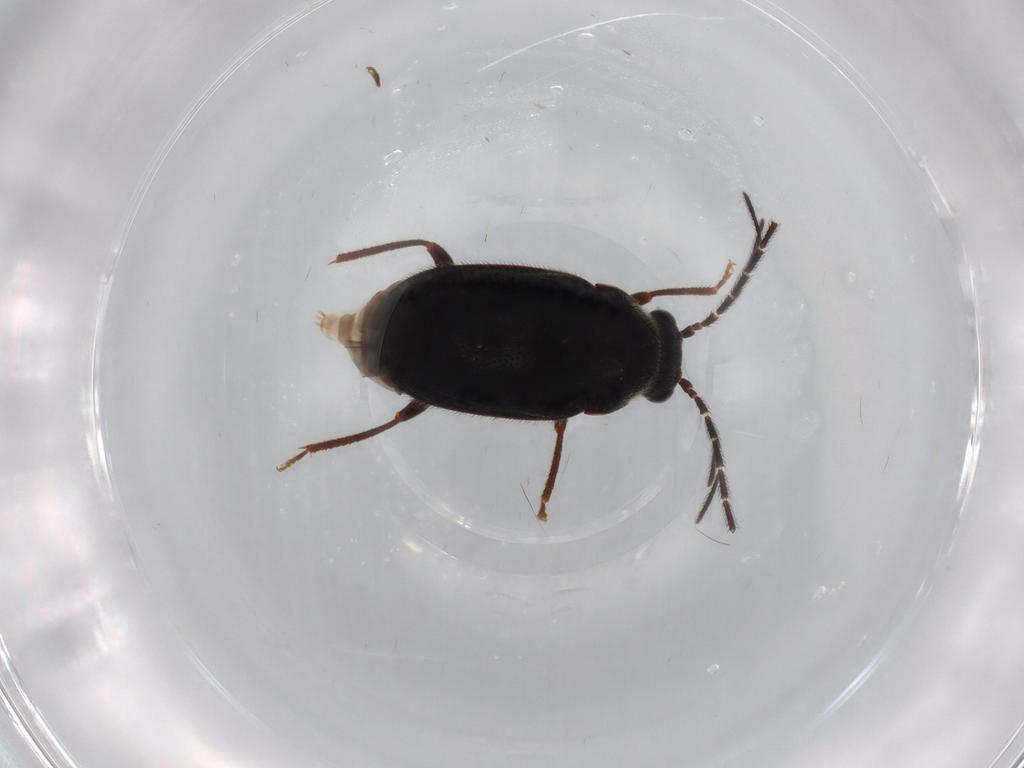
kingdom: Animalia
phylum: Arthropoda
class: Insecta
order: Coleoptera
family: Ptilodactylidae
